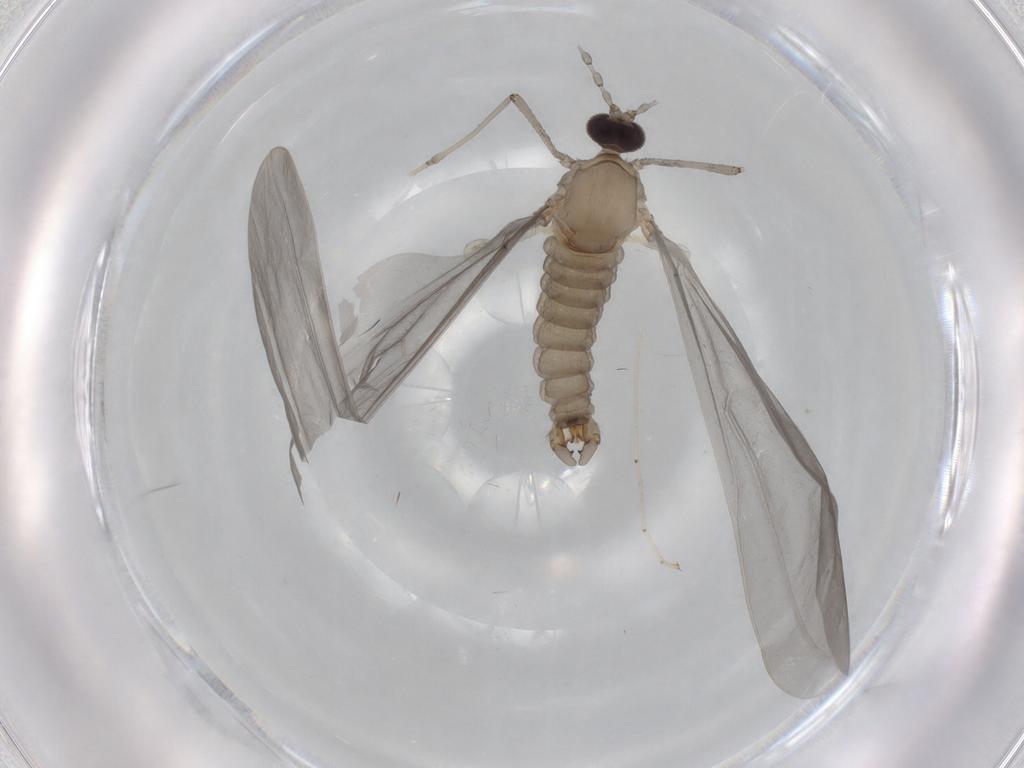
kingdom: Animalia
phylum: Arthropoda
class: Insecta
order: Diptera
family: Cecidomyiidae
